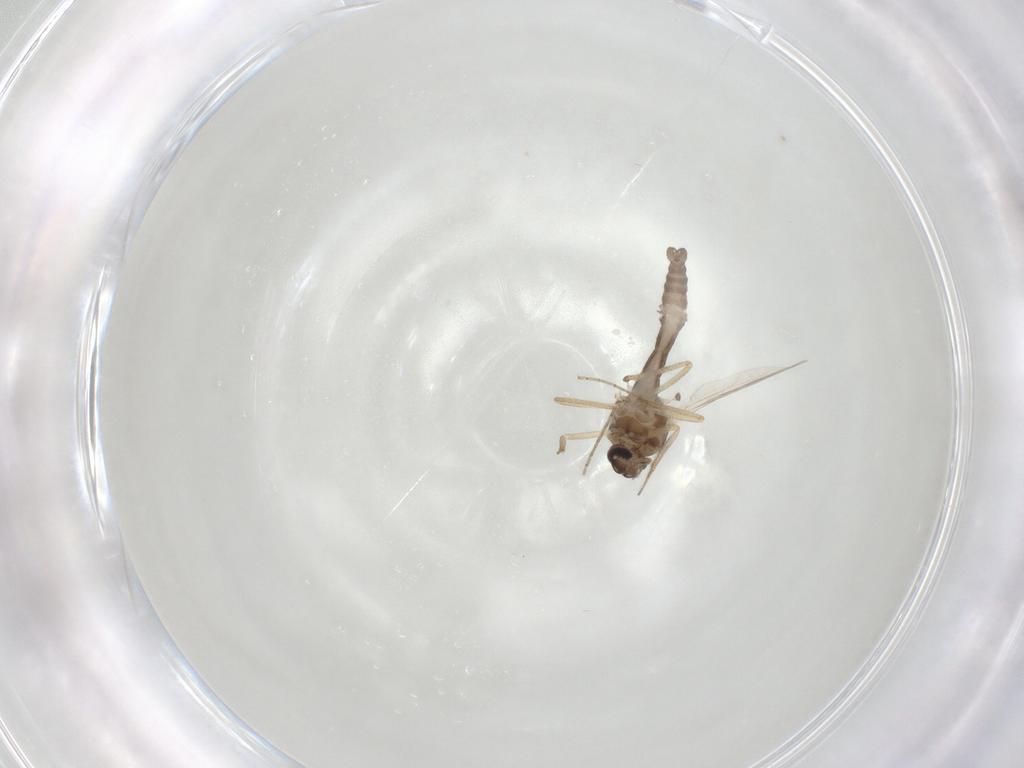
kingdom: Animalia
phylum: Arthropoda
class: Insecta
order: Diptera
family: Ceratopogonidae
